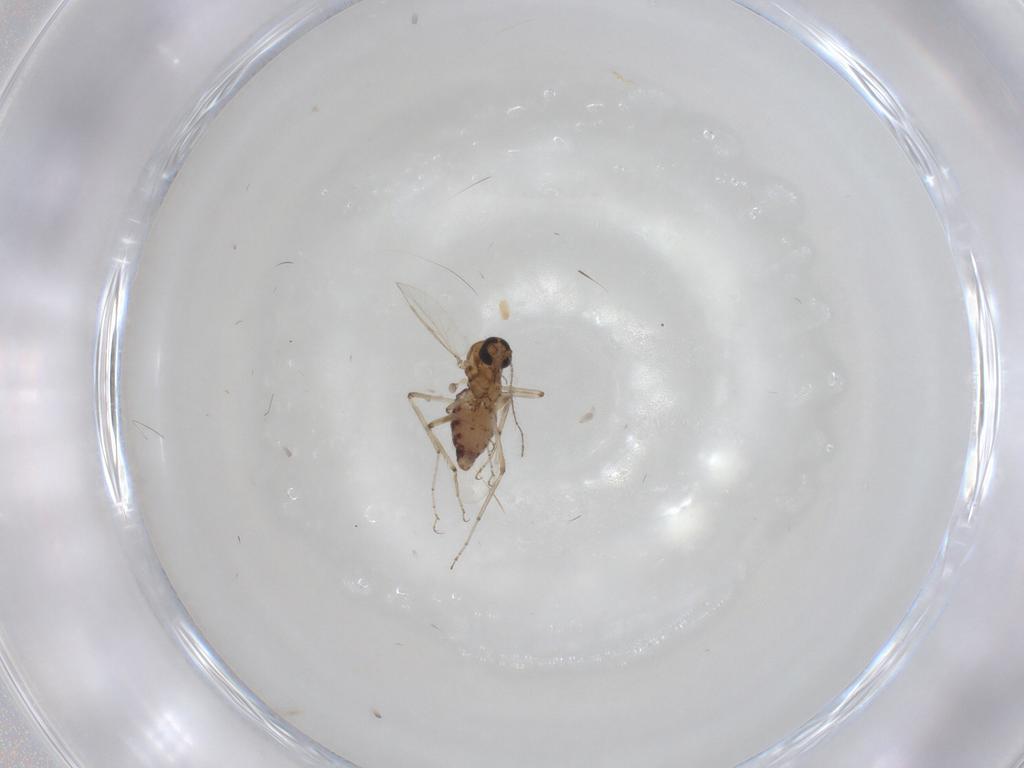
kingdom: Animalia
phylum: Arthropoda
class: Insecta
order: Diptera
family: Ceratopogonidae
